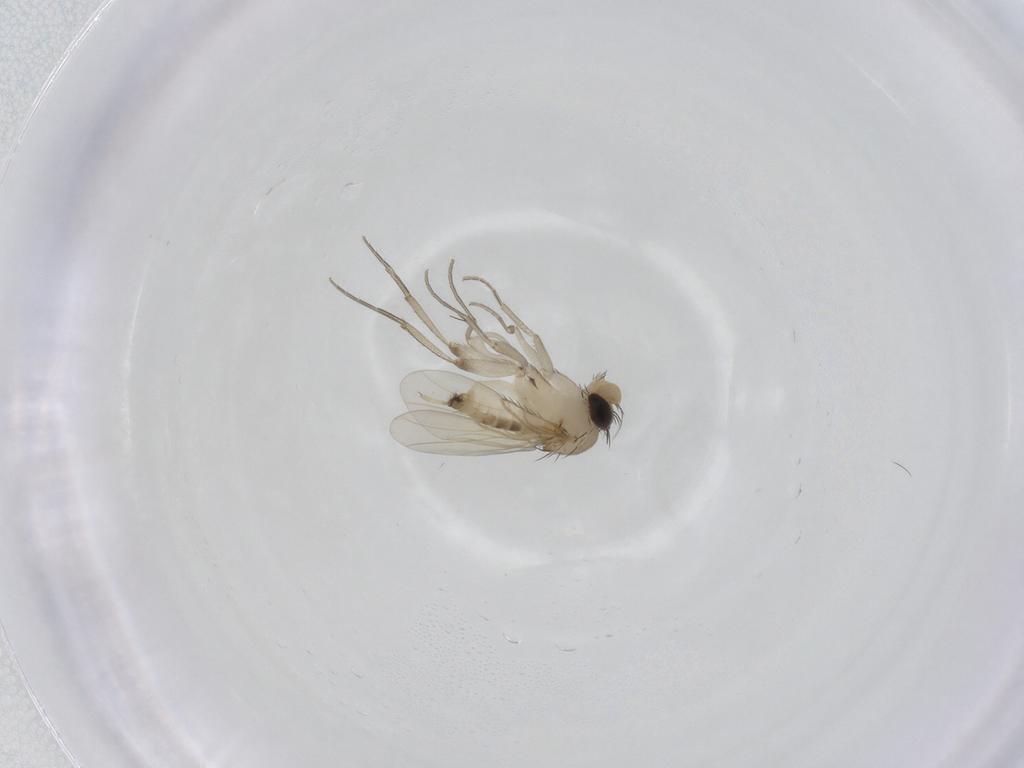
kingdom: Animalia
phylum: Arthropoda
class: Insecta
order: Diptera
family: Phoridae
